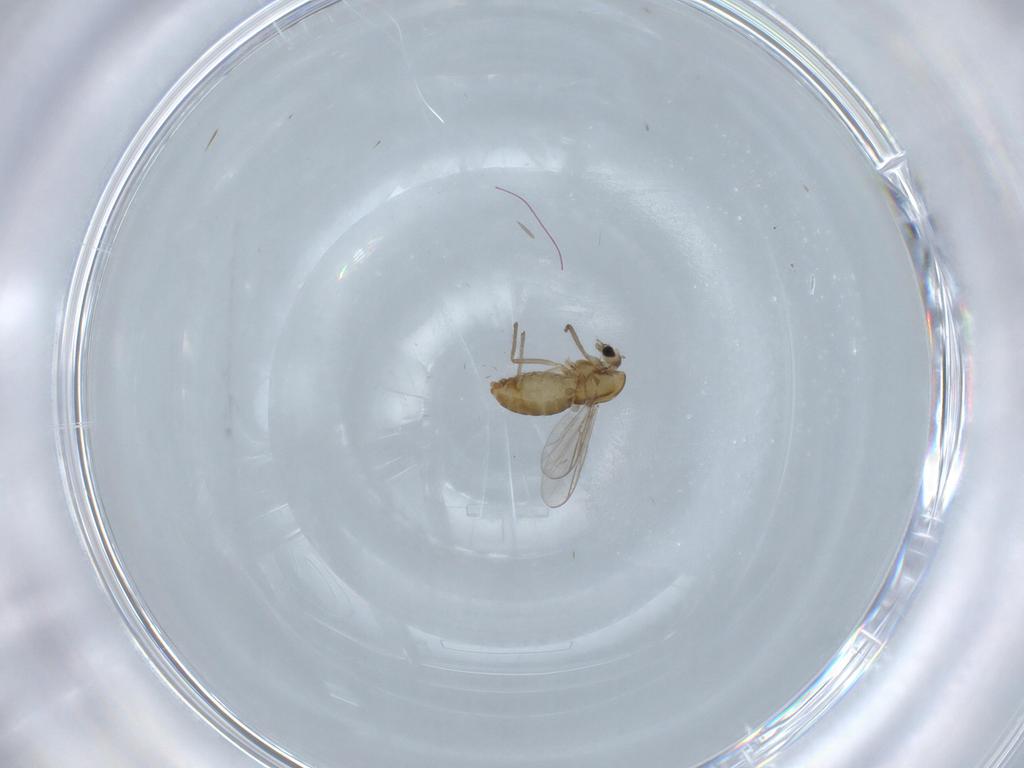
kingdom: Animalia
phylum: Arthropoda
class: Insecta
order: Diptera
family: Chironomidae
